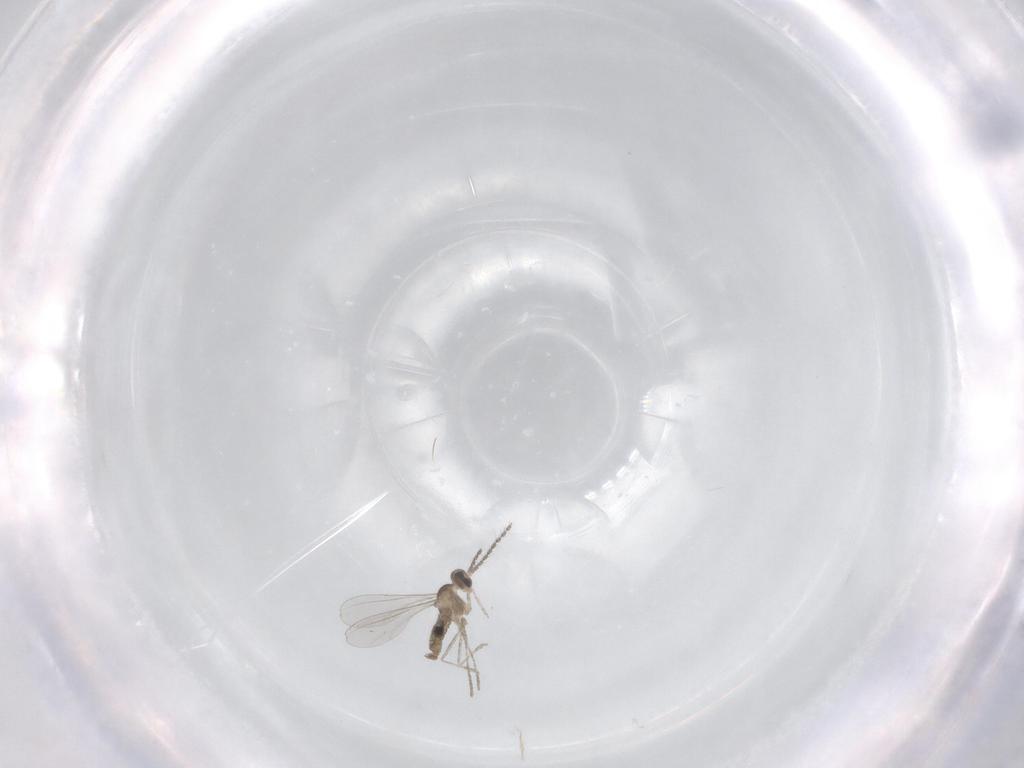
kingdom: Animalia
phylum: Arthropoda
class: Insecta
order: Diptera
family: Chironomidae
